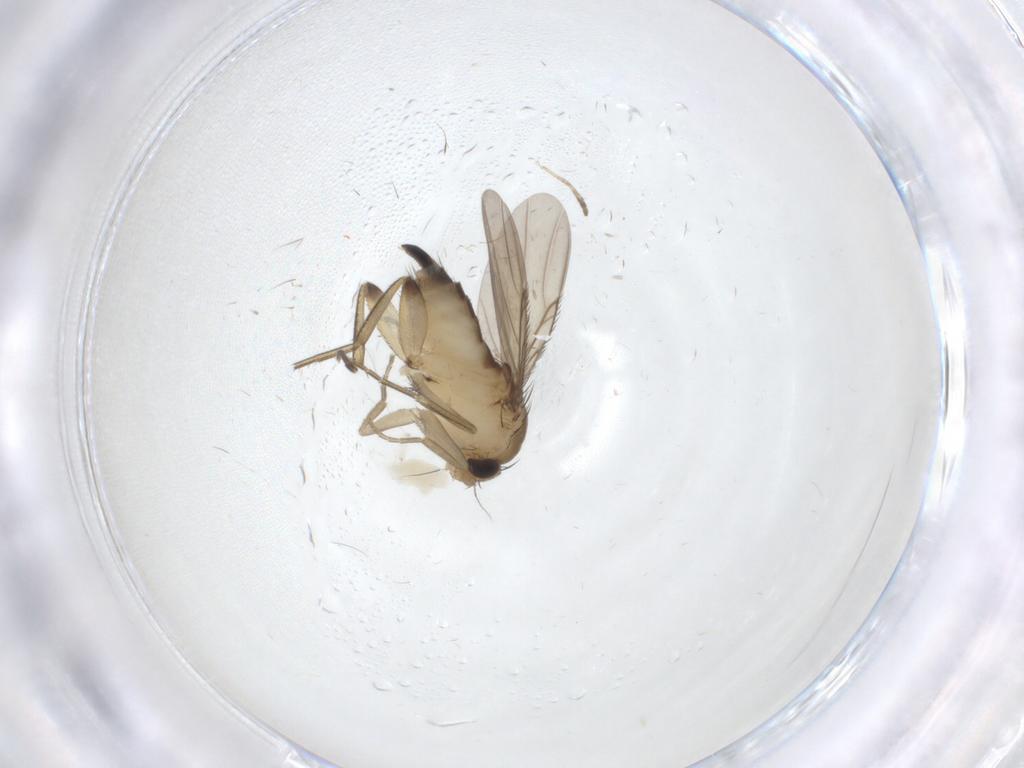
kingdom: Animalia
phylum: Arthropoda
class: Insecta
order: Diptera
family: Phoridae
